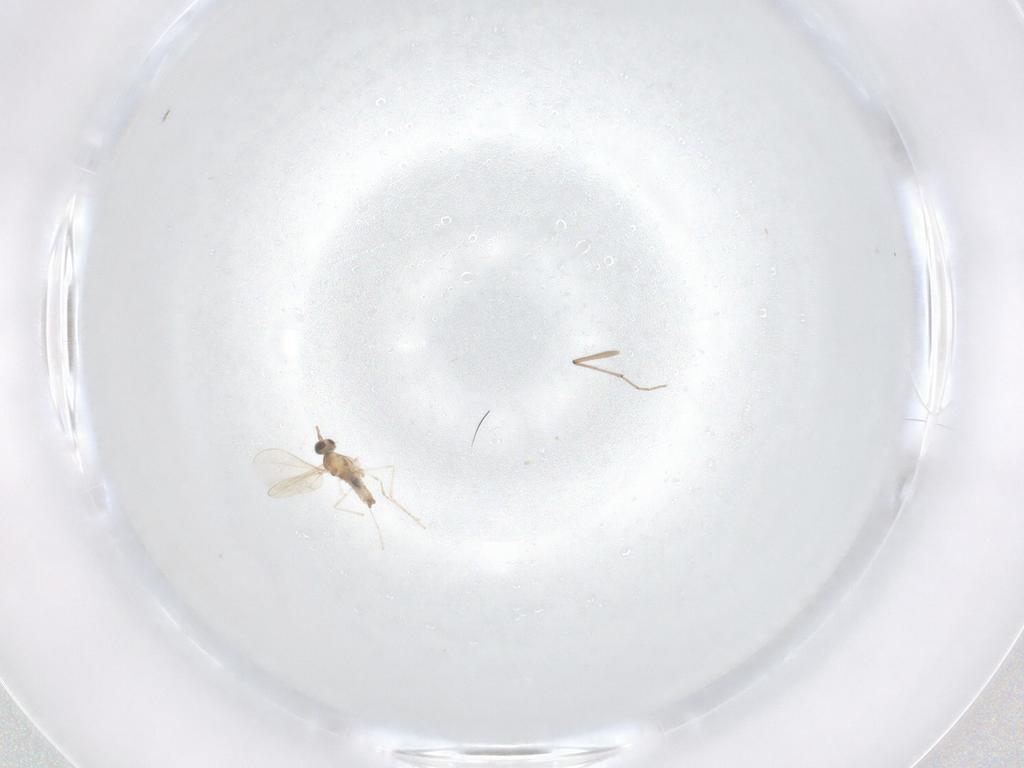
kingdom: Animalia
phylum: Arthropoda
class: Insecta
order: Diptera
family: Cecidomyiidae
